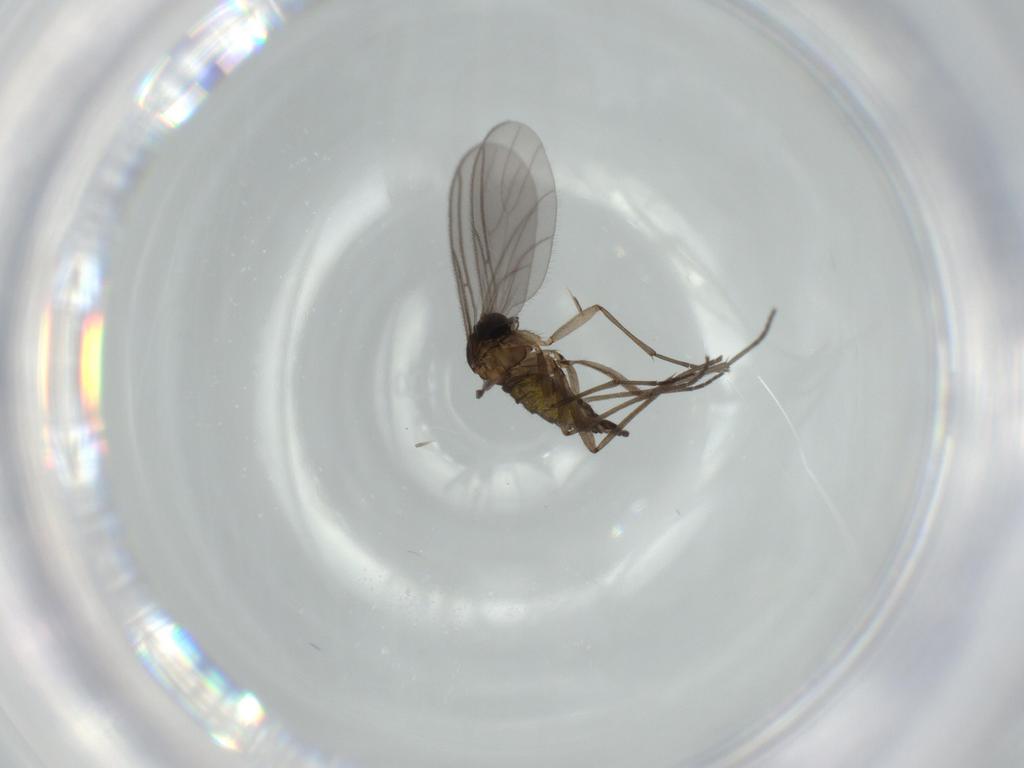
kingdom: Animalia
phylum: Arthropoda
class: Insecta
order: Diptera
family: Sciaridae
